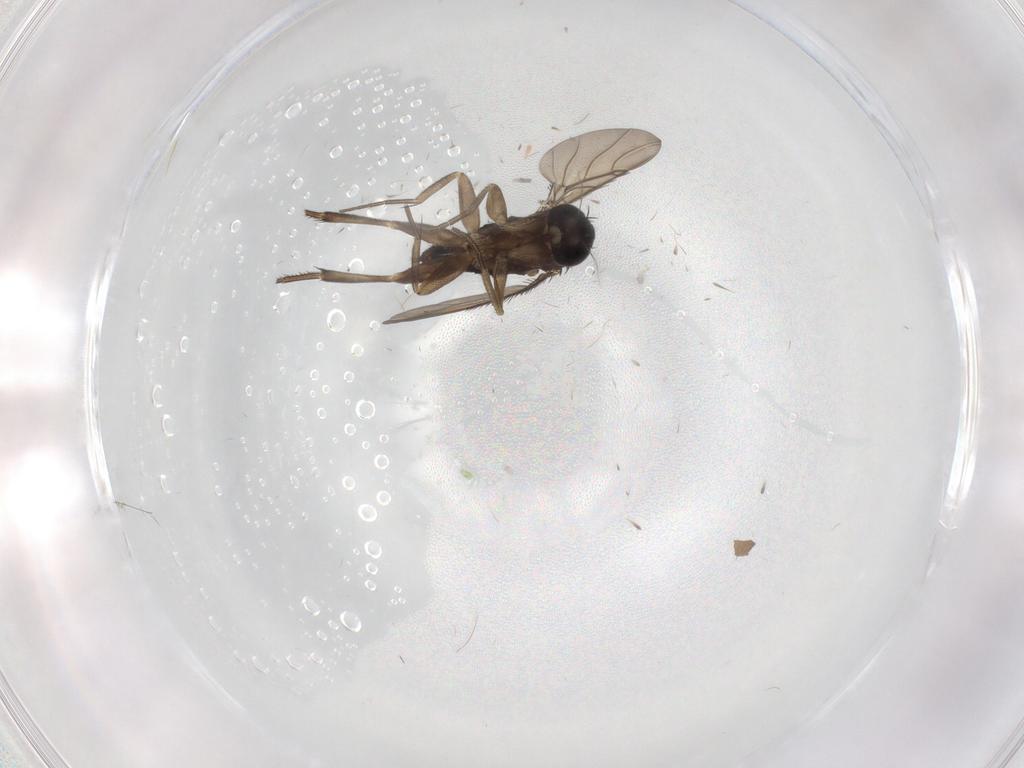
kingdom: Animalia
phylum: Arthropoda
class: Insecta
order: Diptera
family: Phoridae
